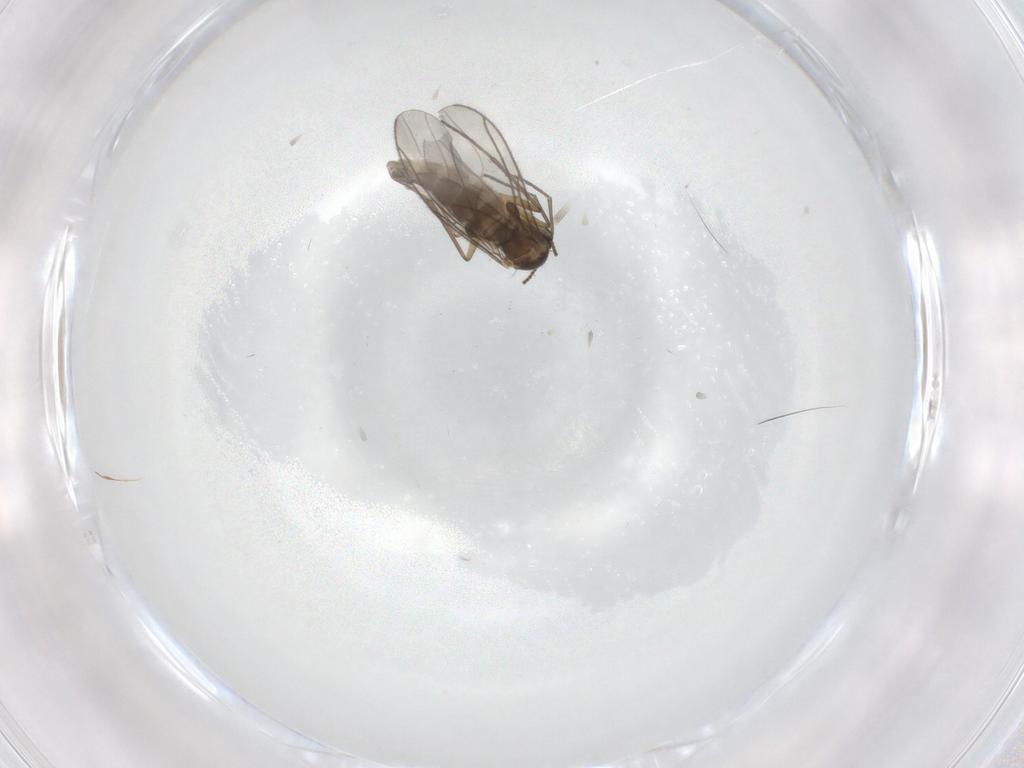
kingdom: Animalia
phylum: Arthropoda
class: Insecta
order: Diptera
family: Sciaridae
